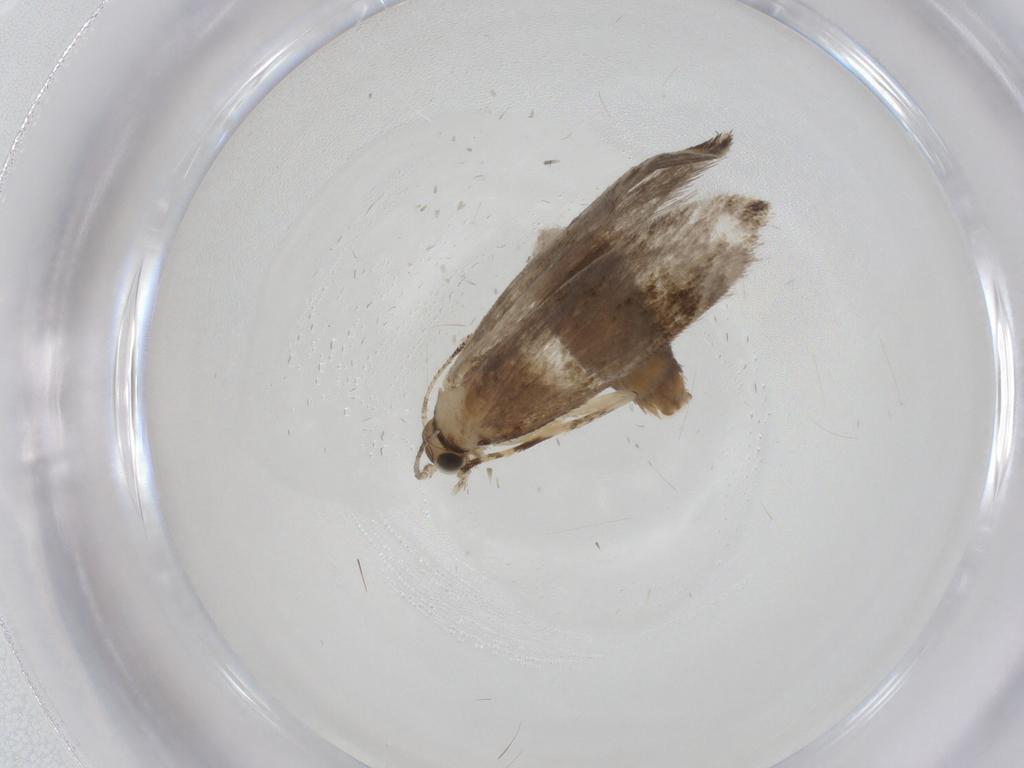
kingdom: Animalia
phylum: Arthropoda
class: Insecta
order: Lepidoptera
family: Tineidae
